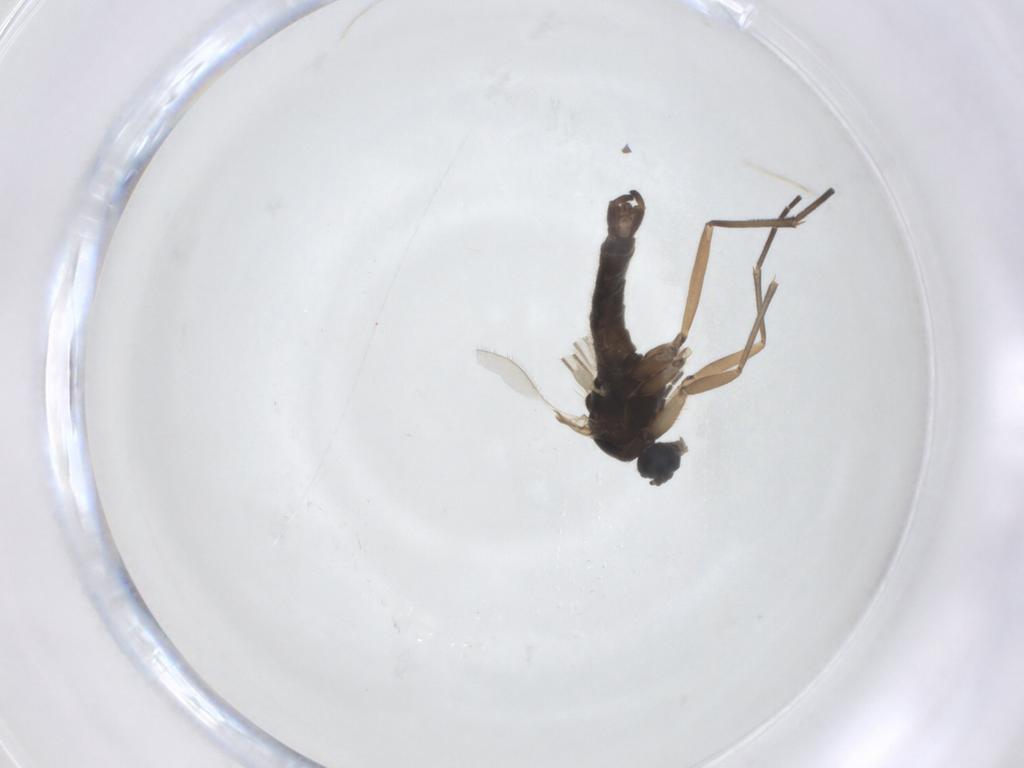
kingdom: Animalia
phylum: Arthropoda
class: Insecta
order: Diptera
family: Sciaridae
